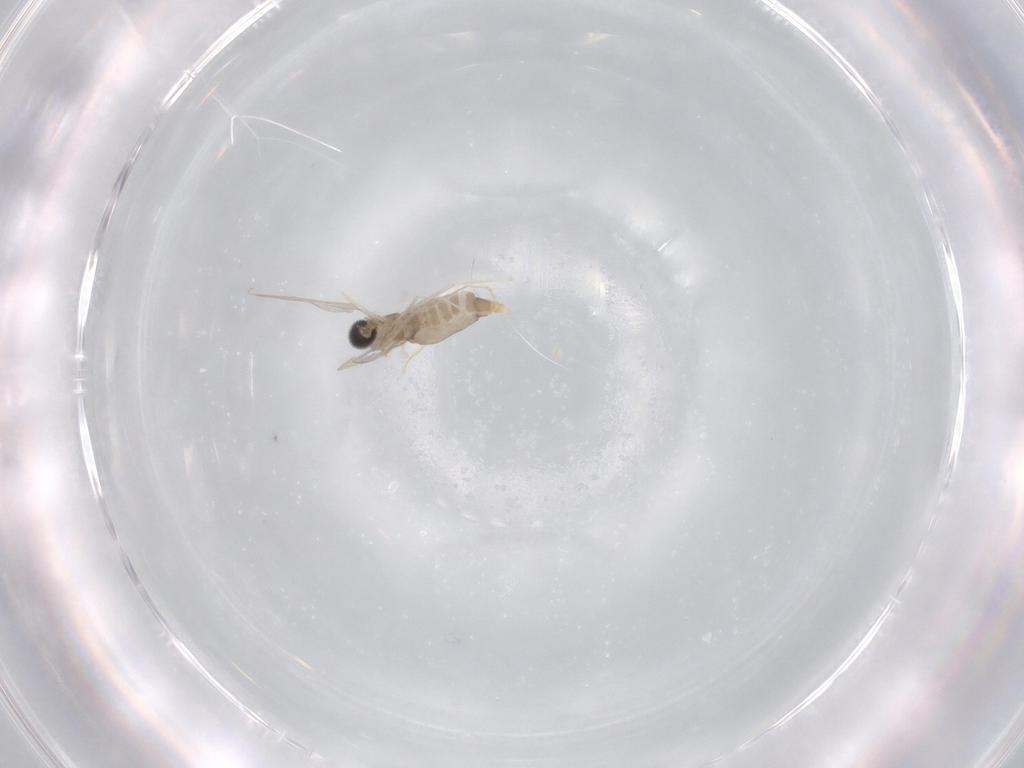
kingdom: Animalia
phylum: Arthropoda
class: Insecta
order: Diptera
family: Cecidomyiidae
